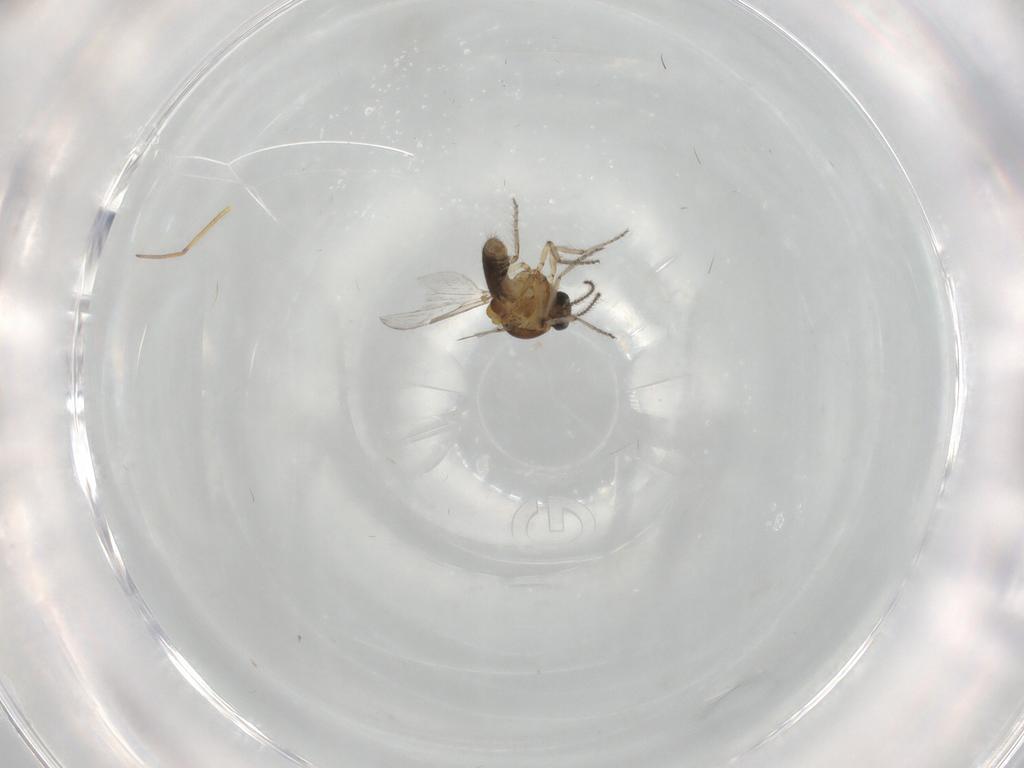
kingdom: Animalia
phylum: Arthropoda
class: Insecta
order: Diptera
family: Ceratopogonidae
